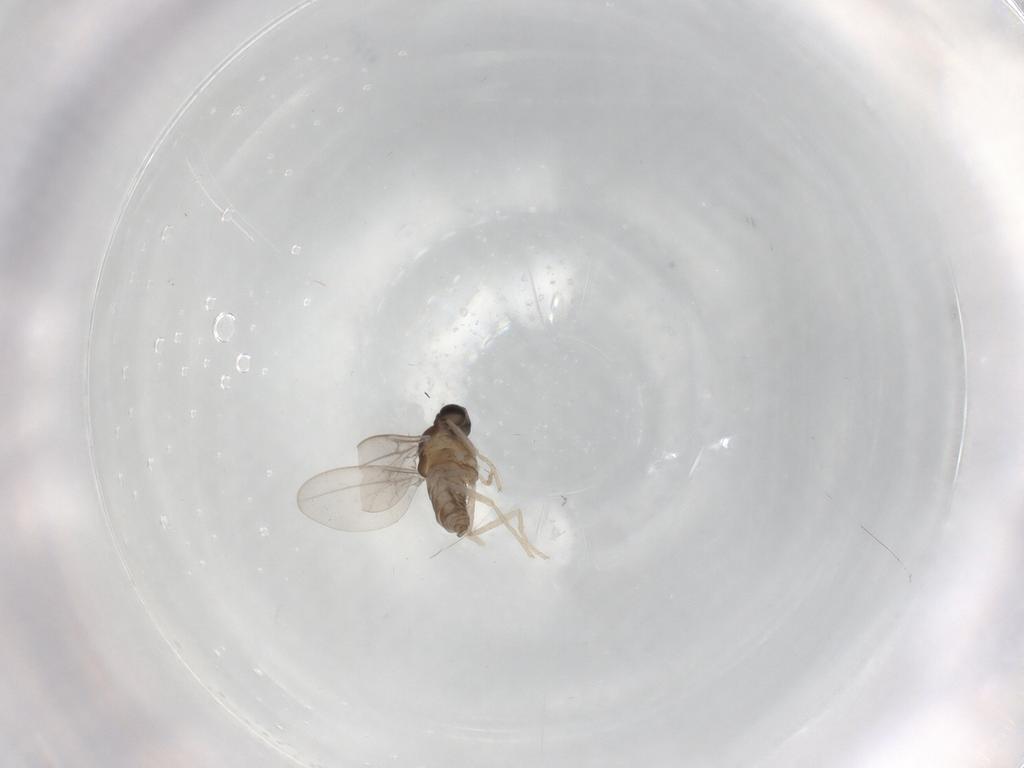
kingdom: Animalia
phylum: Arthropoda
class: Insecta
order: Diptera
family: Cecidomyiidae
